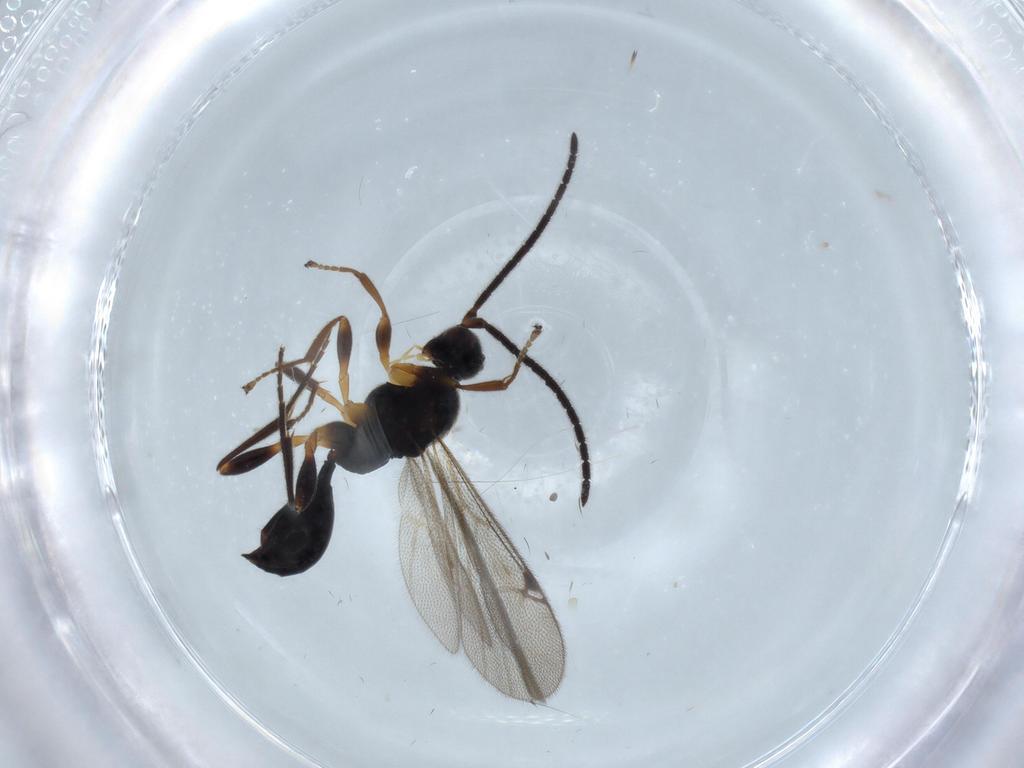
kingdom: Animalia
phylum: Arthropoda
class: Insecta
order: Hymenoptera
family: Proctotrupidae
